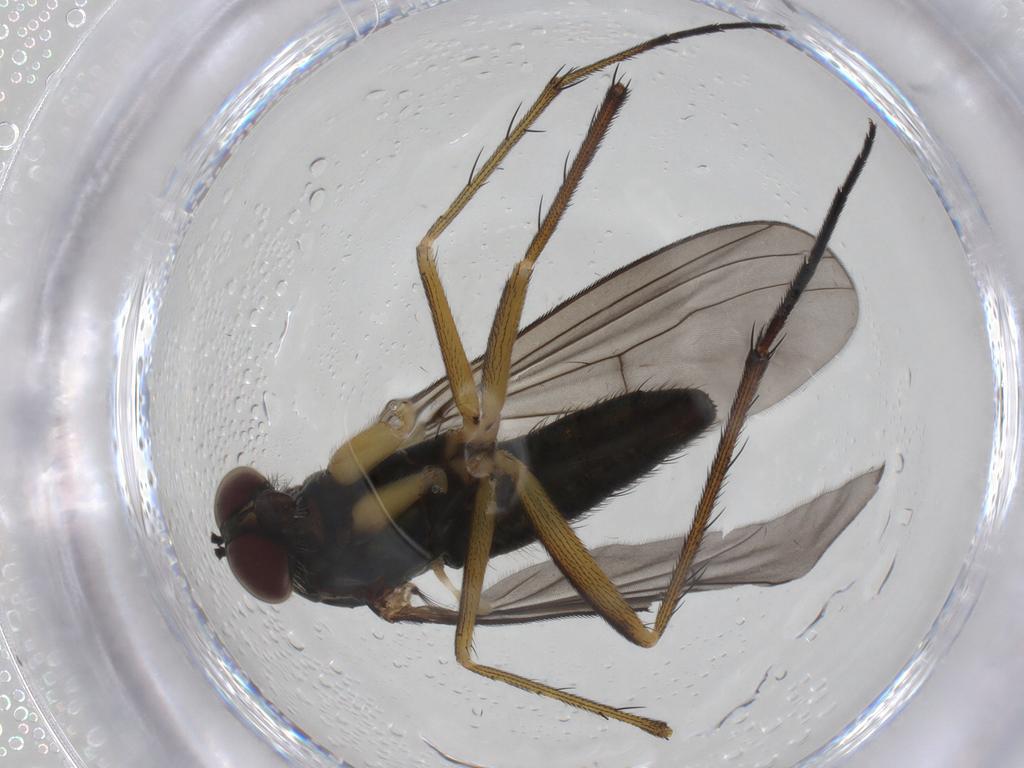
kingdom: Animalia
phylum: Arthropoda
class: Insecta
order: Diptera
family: Dolichopodidae
